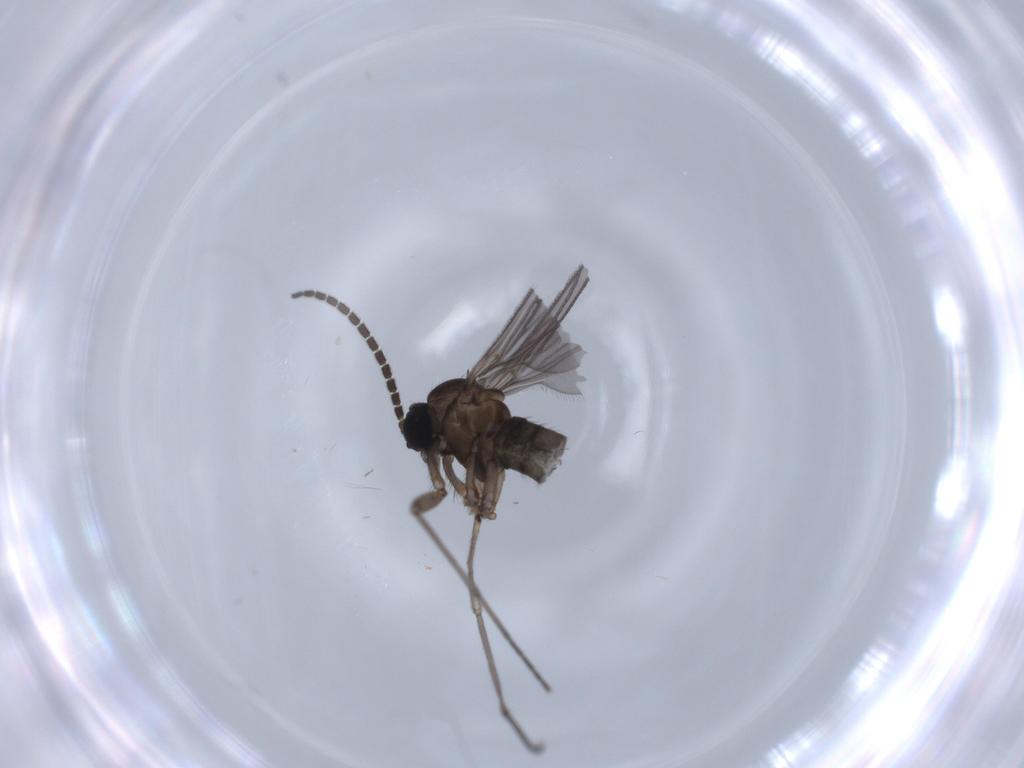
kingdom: Animalia
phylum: Arthropoda
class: Insecta
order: Diptera
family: Sciaridae
